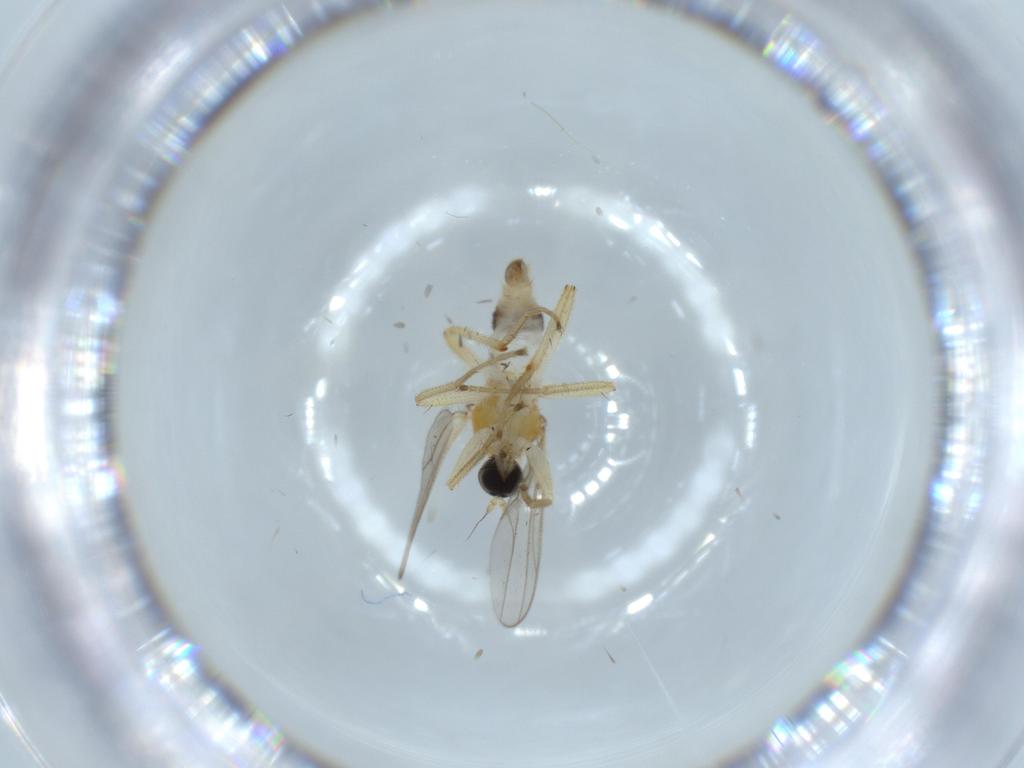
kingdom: Animalia
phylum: Arthropoda
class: Insecta
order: Diptera
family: Hybotidae
